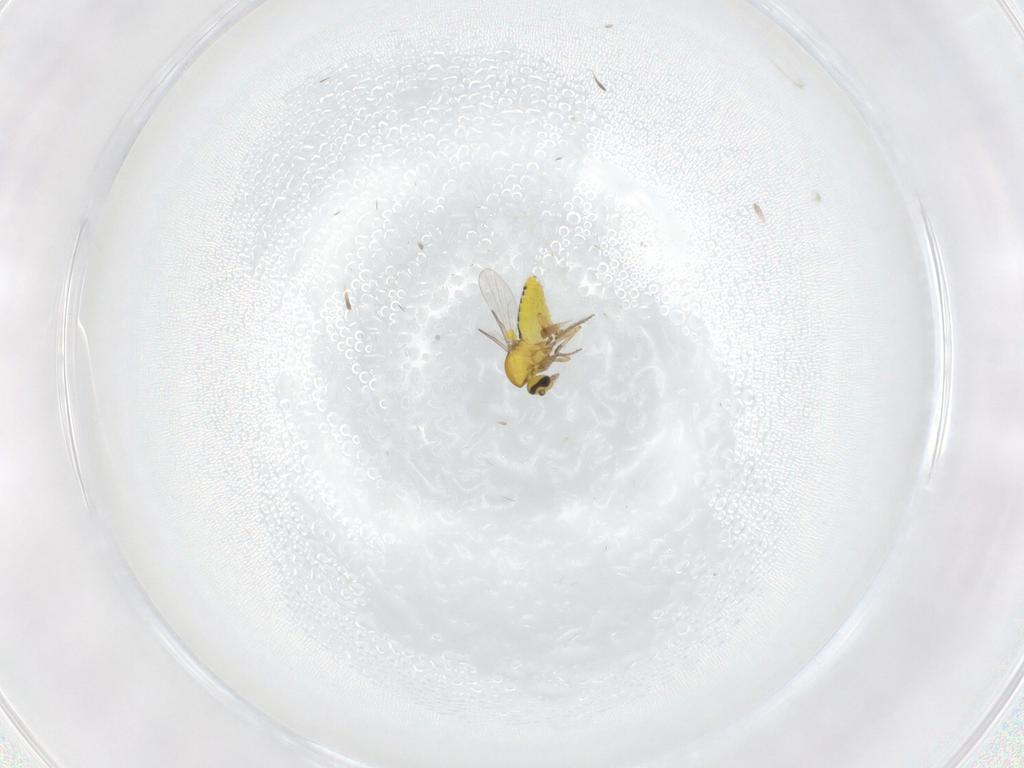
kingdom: Animalia
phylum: Arthropoda
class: Insecta
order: Diptera
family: Ceratopogonidae
